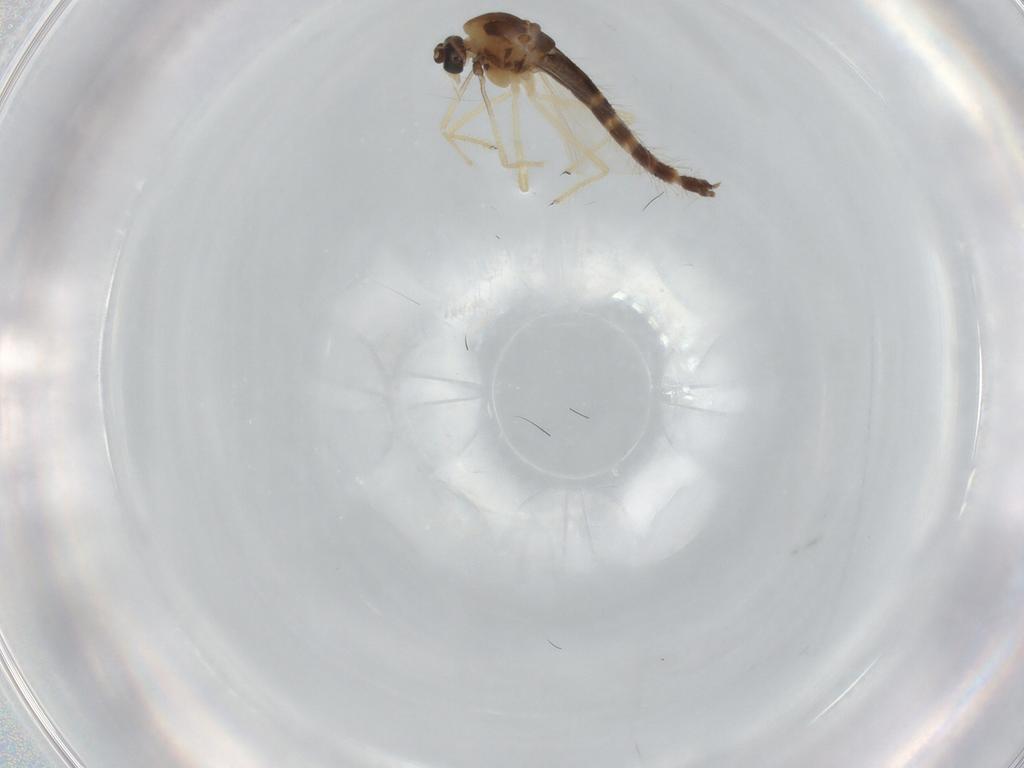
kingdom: Animalia
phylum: Arthropoda
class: Insecta
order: Diptera
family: Chironomidae
